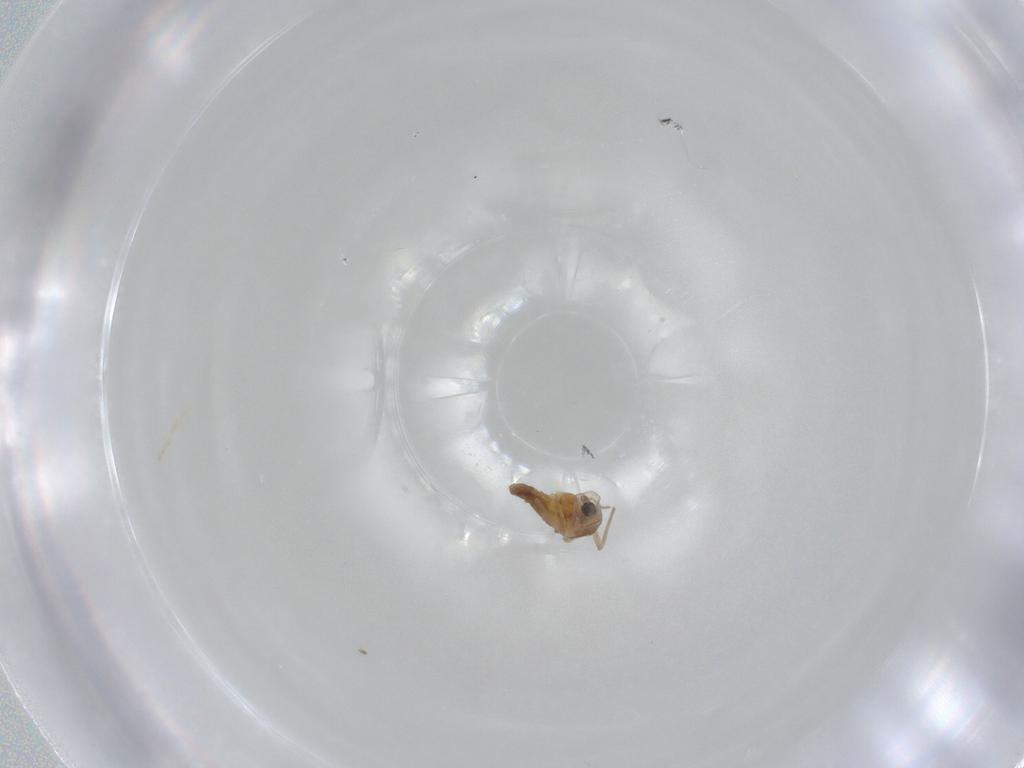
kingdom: Animalia
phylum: Arthropoda
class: Insecta
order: Diptera
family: Chironomidae
